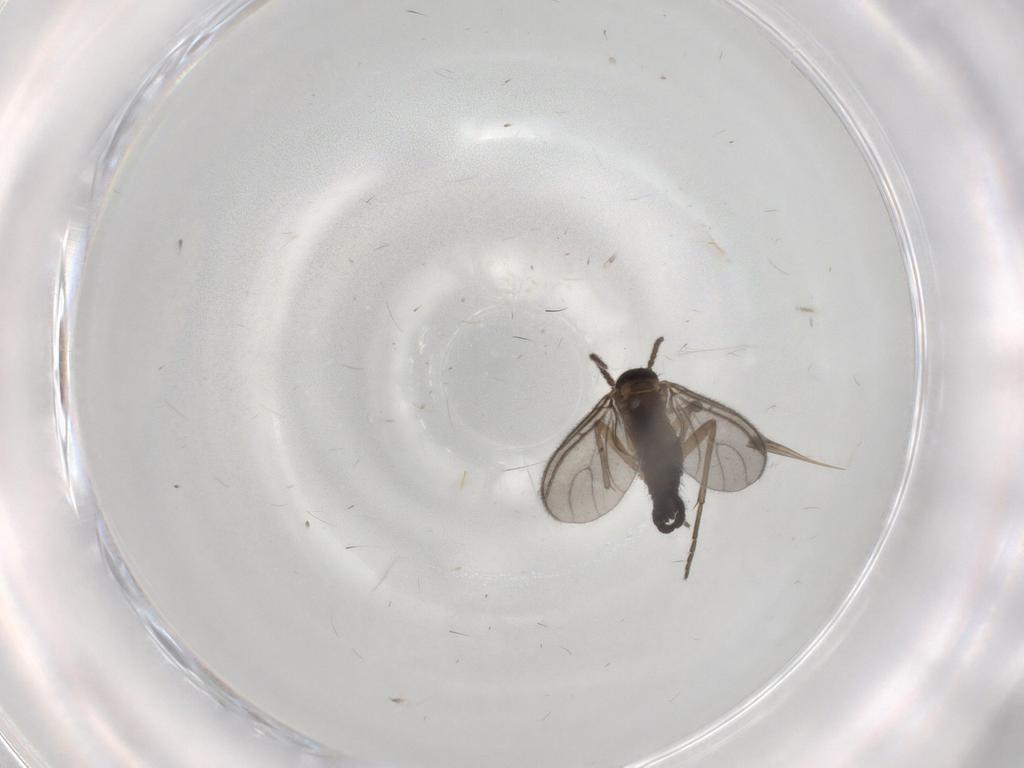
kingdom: Animalia
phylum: Arthropoda
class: Insecta
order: Diptera
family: Sciaridae
